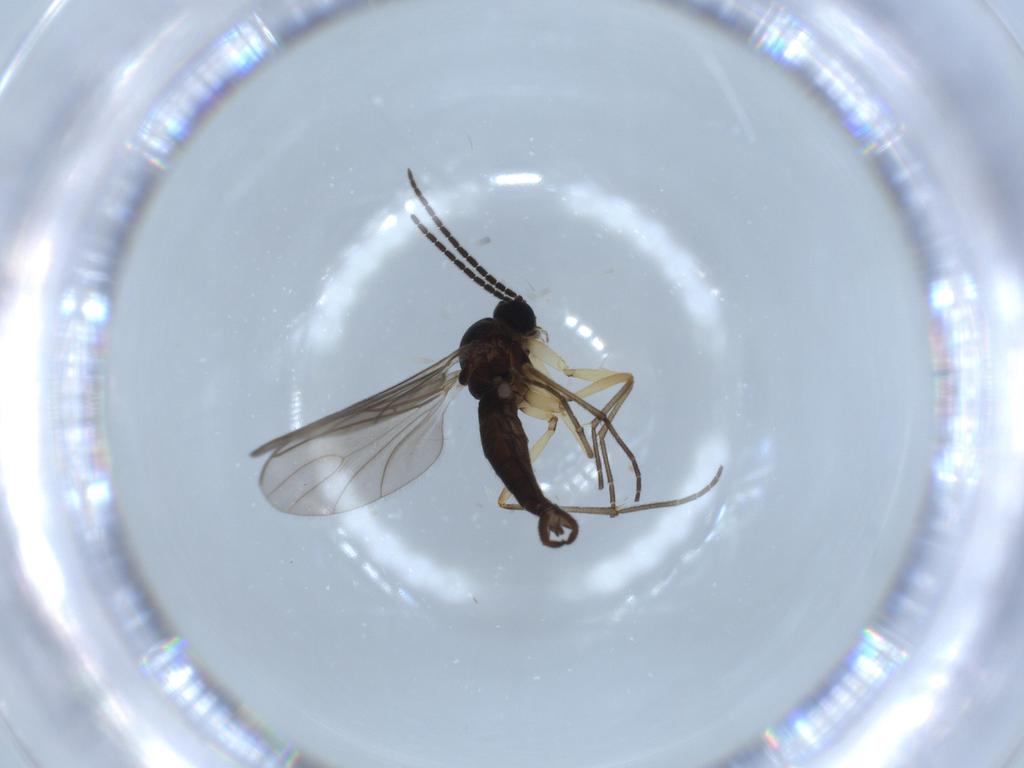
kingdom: Animalia
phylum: Arthropoda
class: Insecta
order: Diptera
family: Sciaridae
